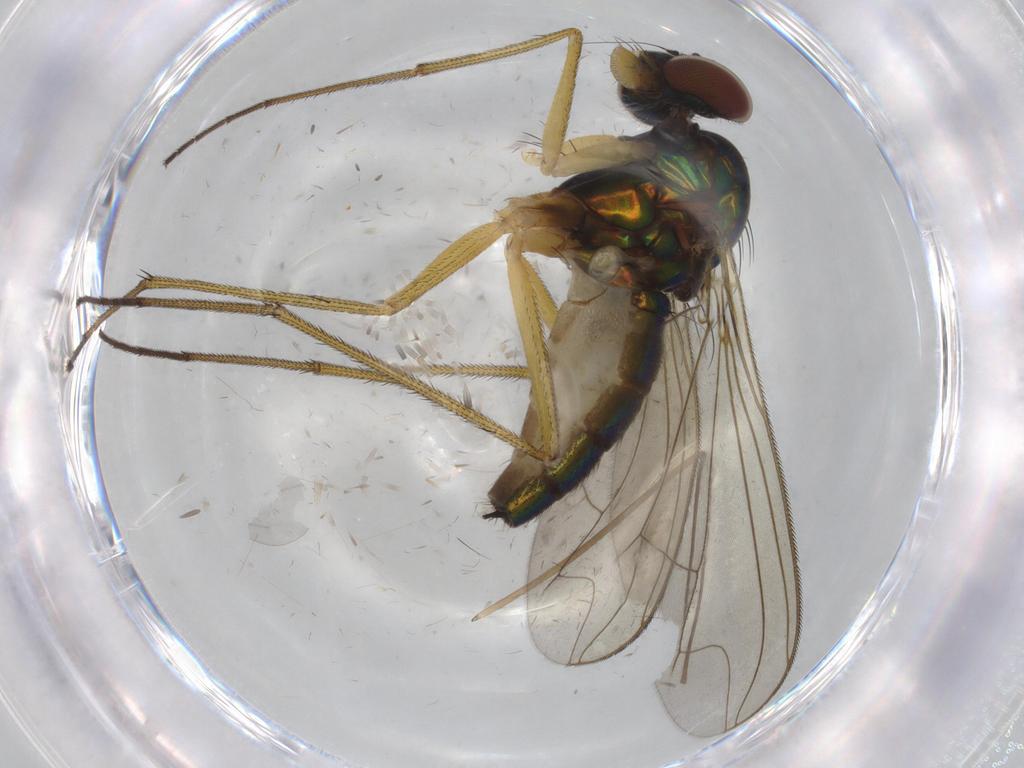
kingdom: Animalia
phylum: Arthropoda
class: Insecta
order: Diptera
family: Dolichopodidae
